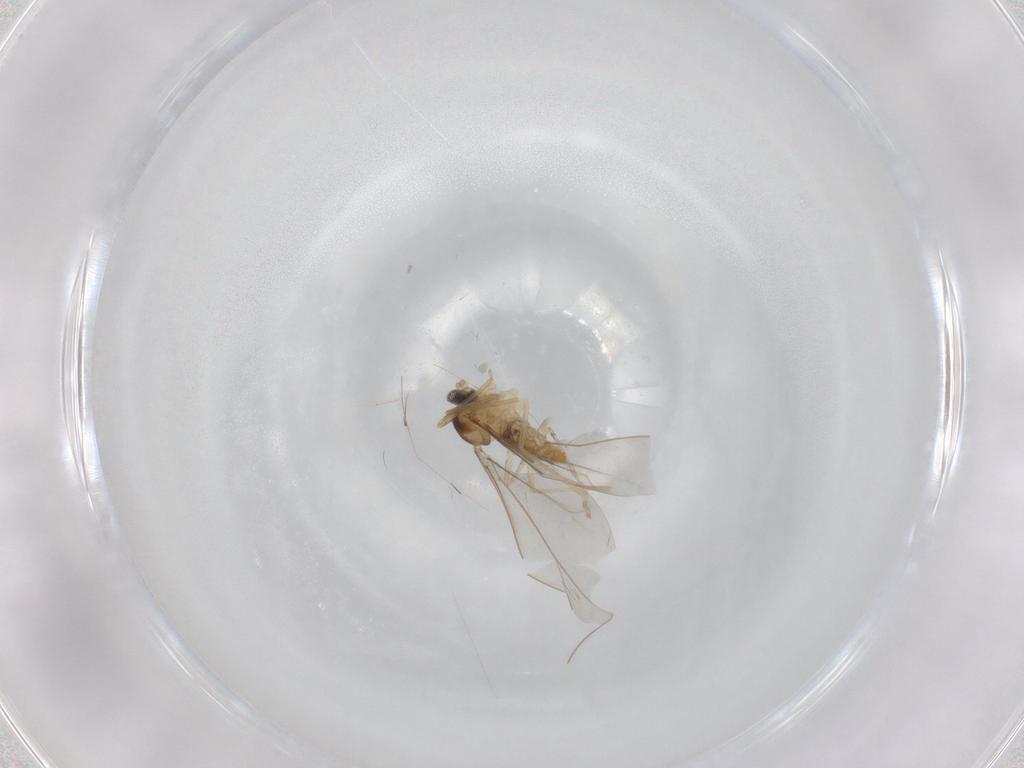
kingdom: Animalia
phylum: Arthropoda
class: Insecta
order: Diptera
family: Cecidomyiidae
